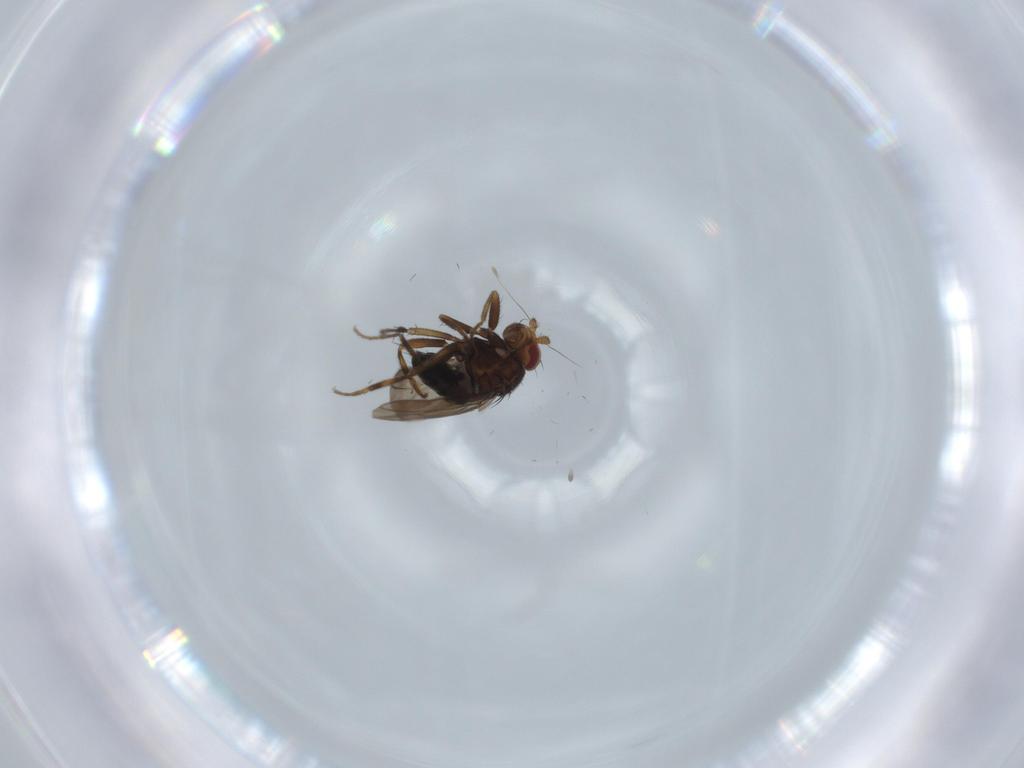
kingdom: Animalia
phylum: Arthropoda
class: Insecta
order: Diptera
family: Sphaeroceridae
